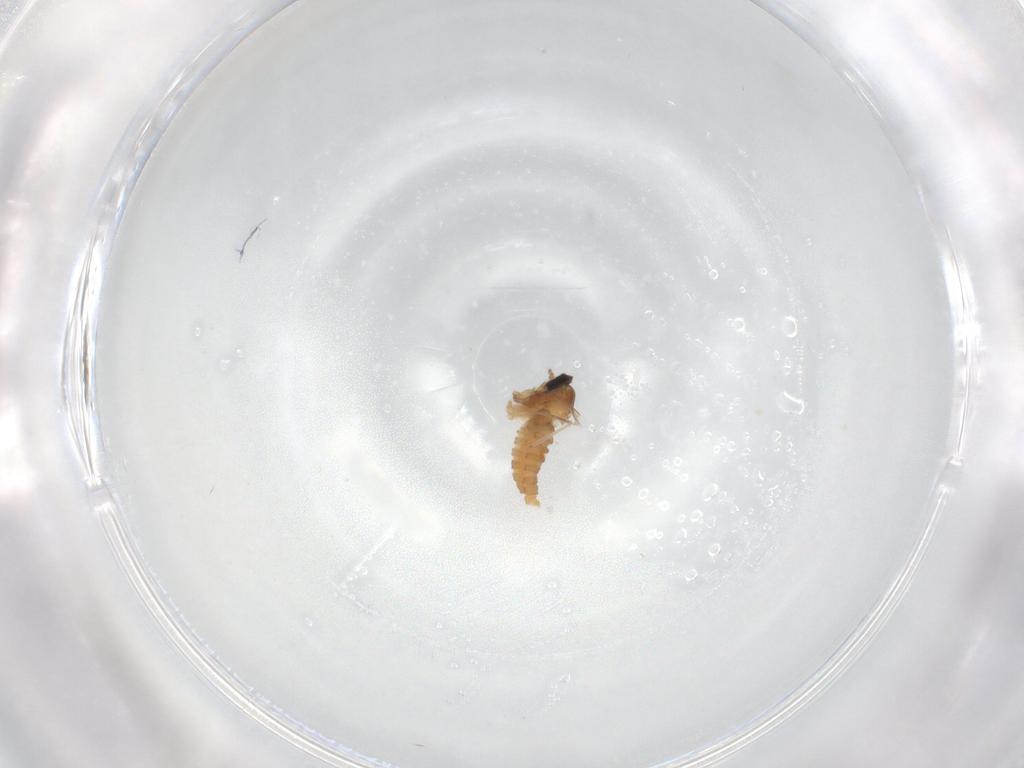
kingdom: Animalia
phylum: Arthropoda
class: Insecta
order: Diptera
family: Cecidomyiidae
